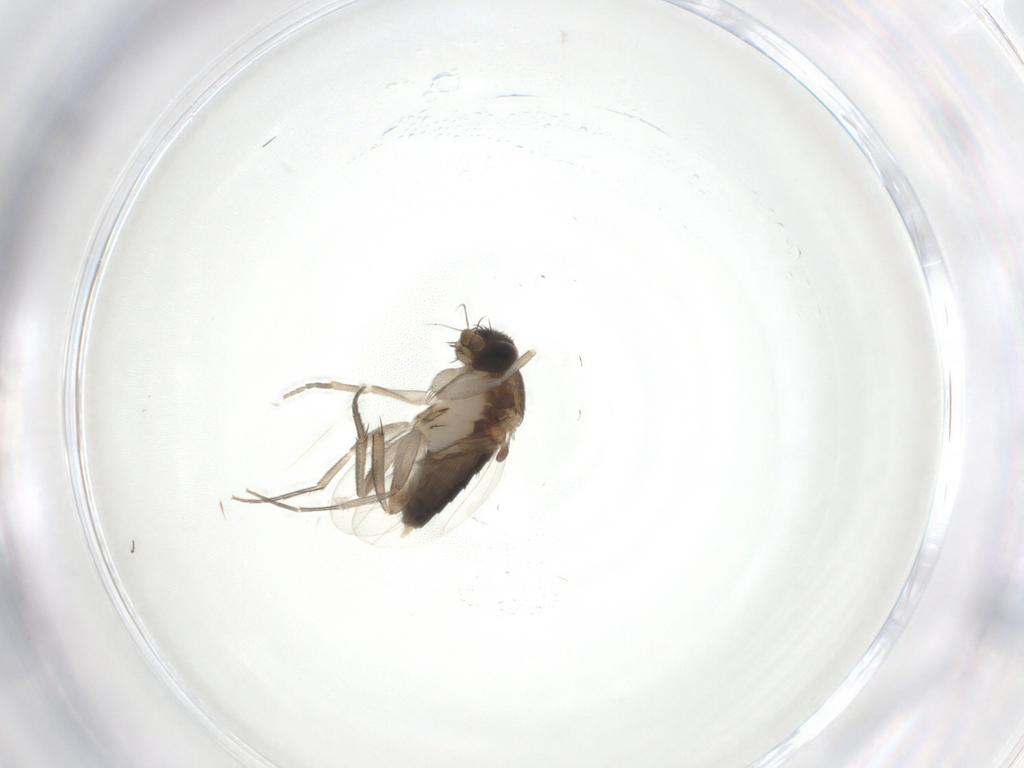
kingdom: Animalia
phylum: Arthropoda
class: Insecta
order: Diptera
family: Phoridae
